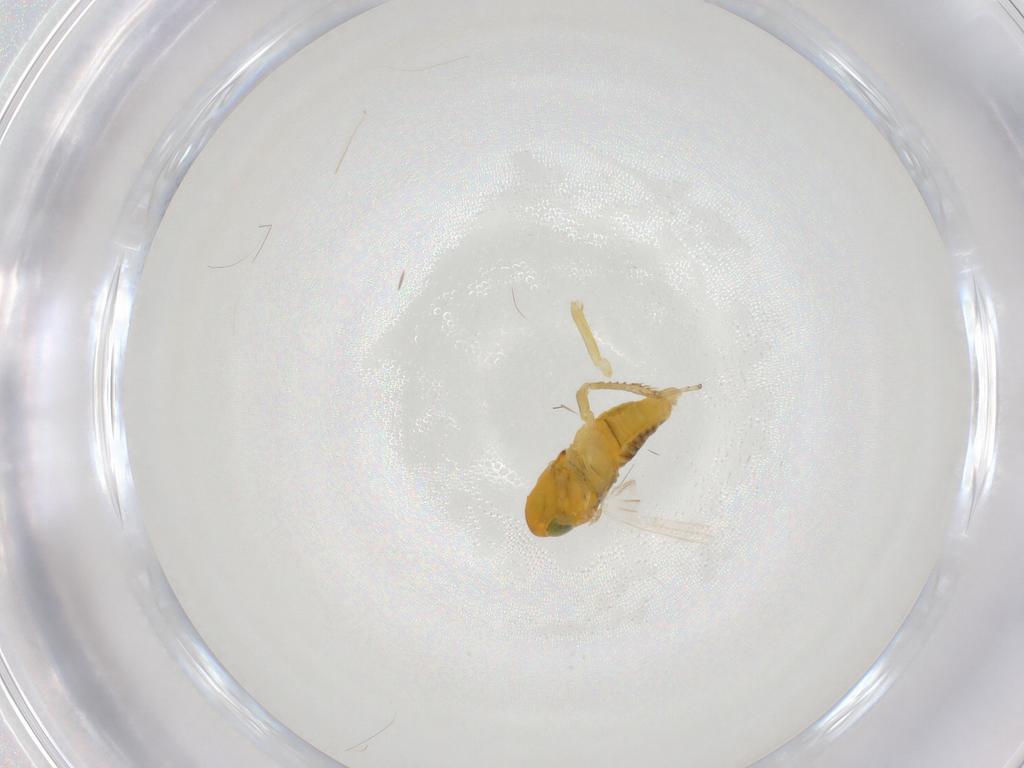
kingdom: Animalia
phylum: Arthropoda
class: Insecta
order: Hemiptera
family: Cicadellidae
